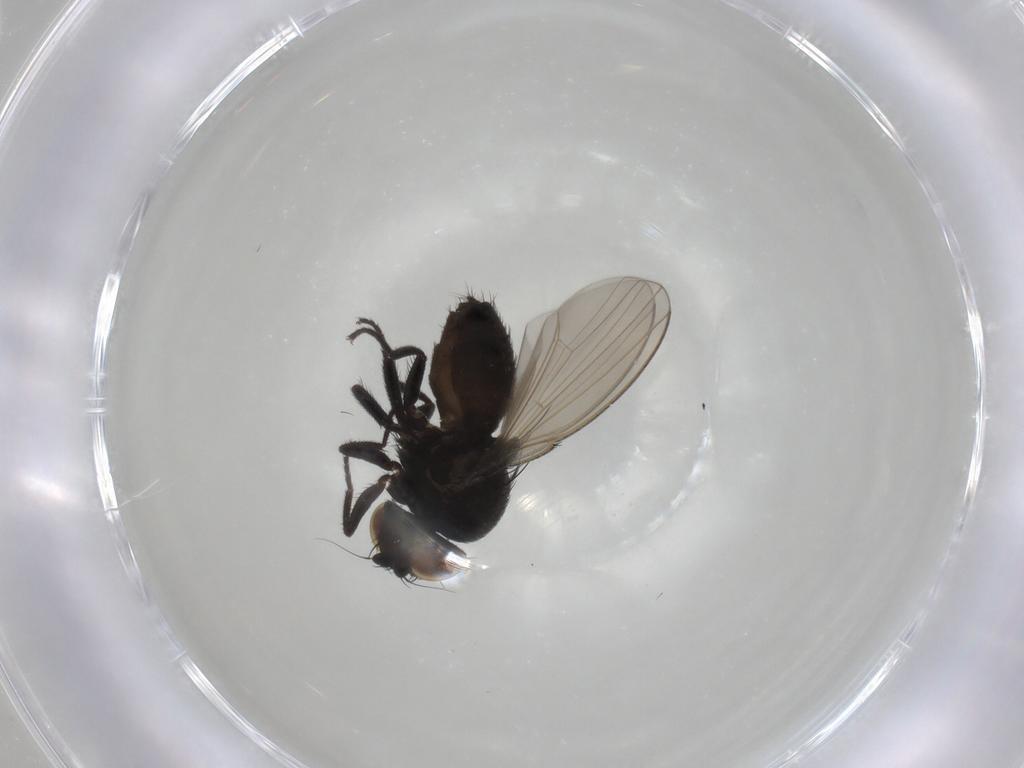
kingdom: Animalia
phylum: Arthropoda
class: Insecta
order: Diptera
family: Milichiidae
